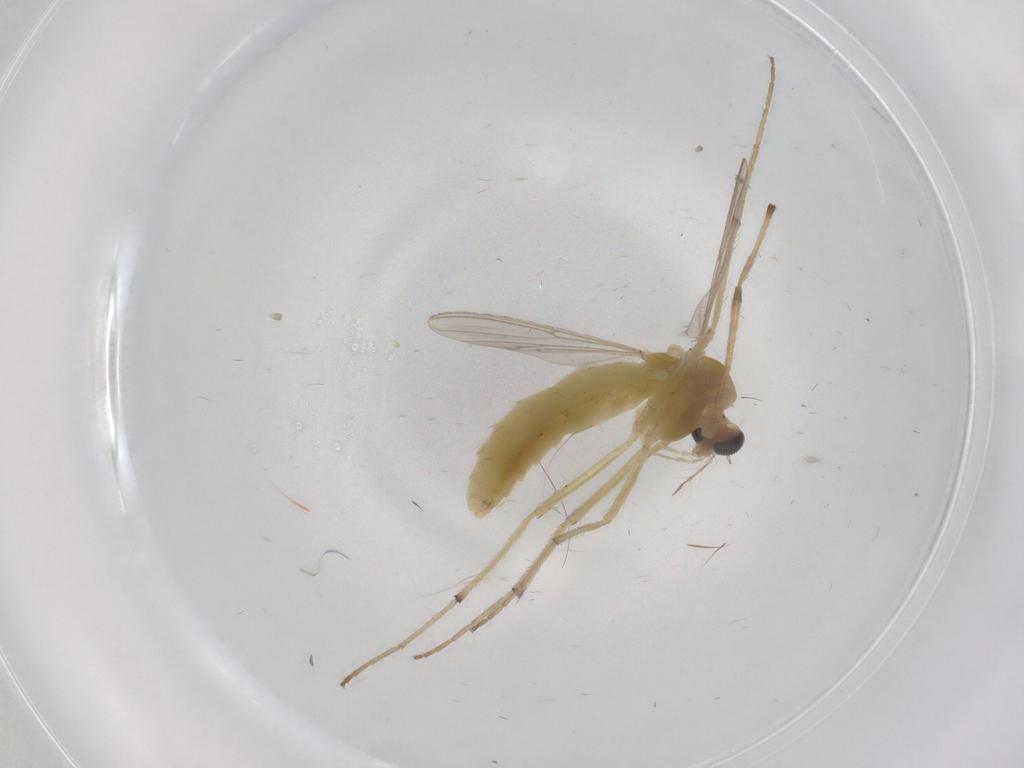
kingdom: Animalia
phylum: Arthropoda
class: Insecta
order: Diptera
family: Chironomidae
